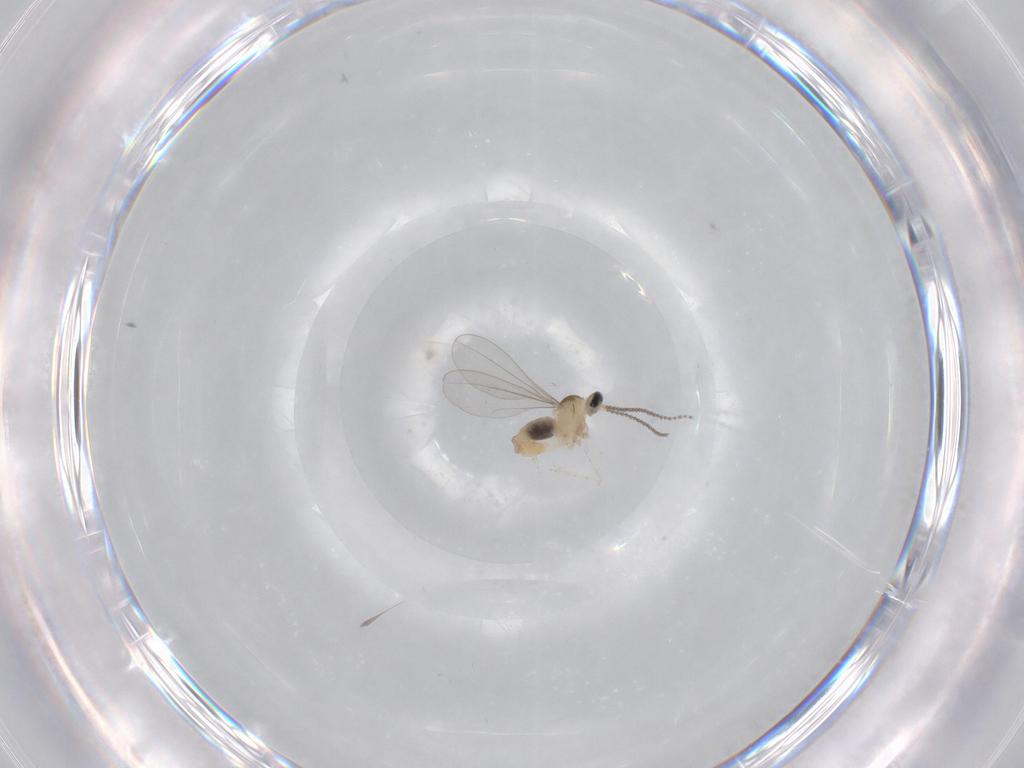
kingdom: Animalia
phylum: Arthropoda
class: Insecta
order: Diptera
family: Cecidomyiidae
